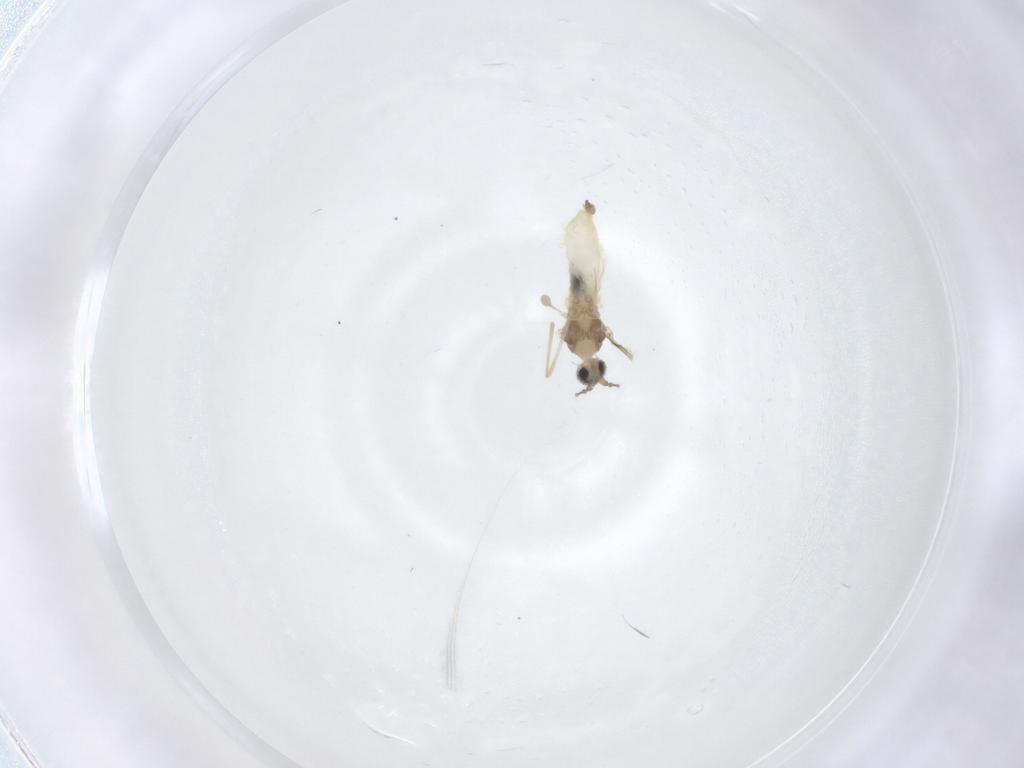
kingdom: Animalia
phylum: Arthropoda
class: Insecta
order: Diptera
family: Cecidomyiidae
